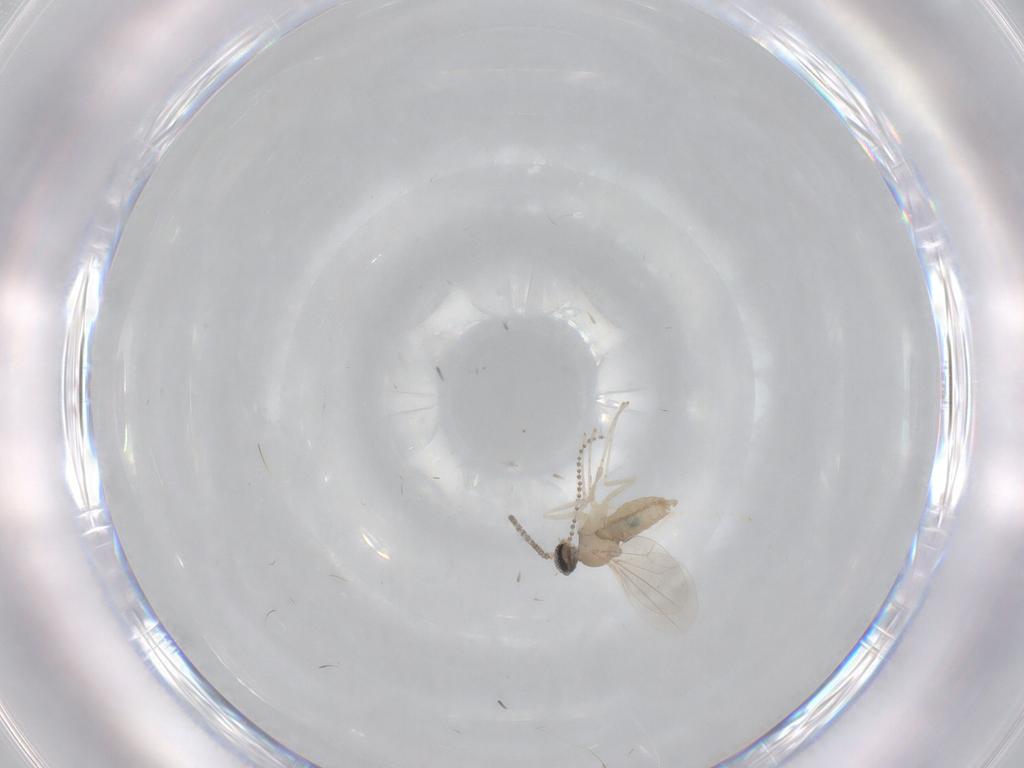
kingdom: Animalia
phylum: Arthropoda
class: Insecta
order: Diptera
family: Cecidomyiidae
